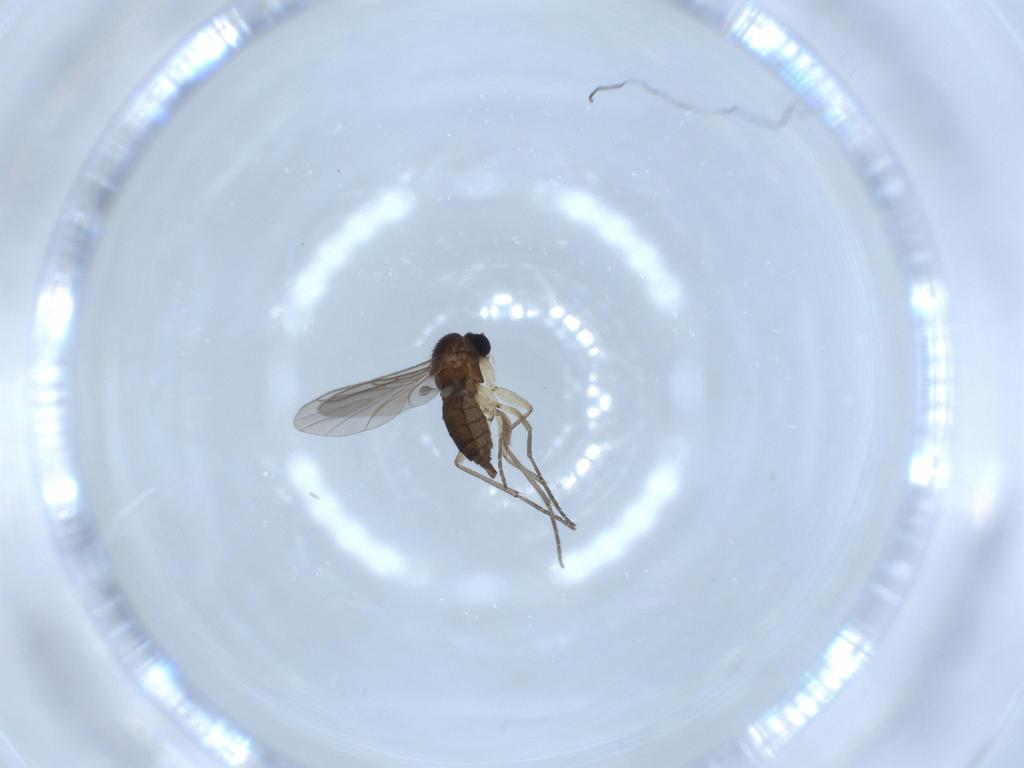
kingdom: Animalia
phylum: Arthropoda
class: Insecta
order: Diptera
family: Sciaridae
